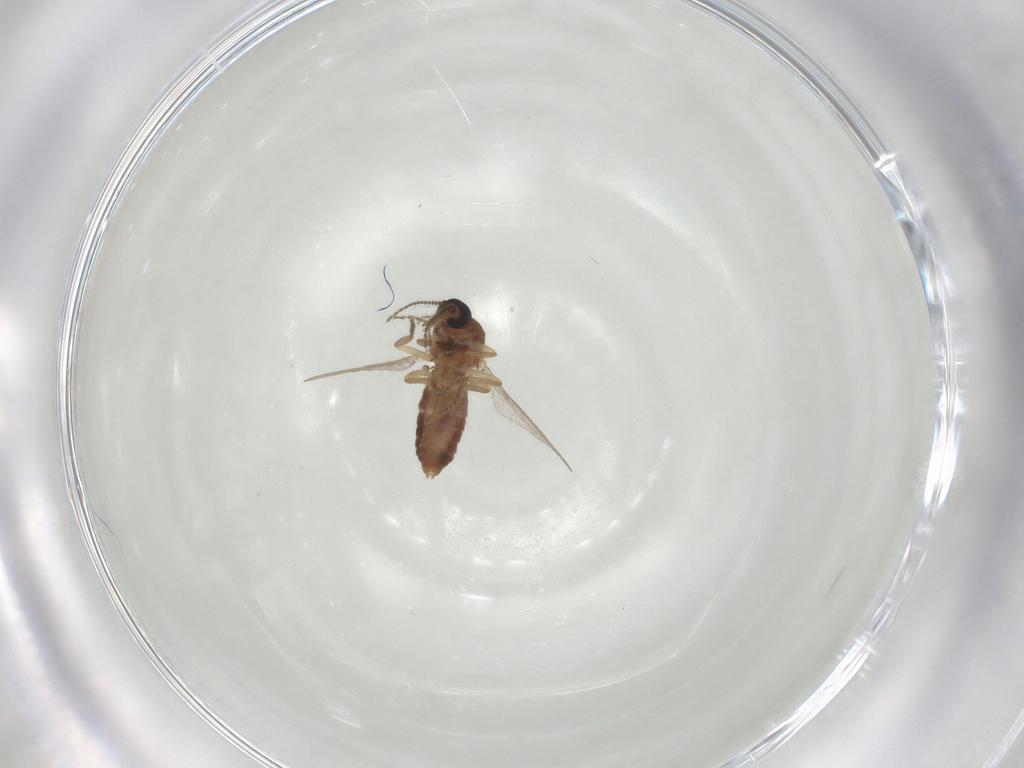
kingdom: Animalia
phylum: Arthropoda
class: Insecta
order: Diptera
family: Ceratopogonidae
